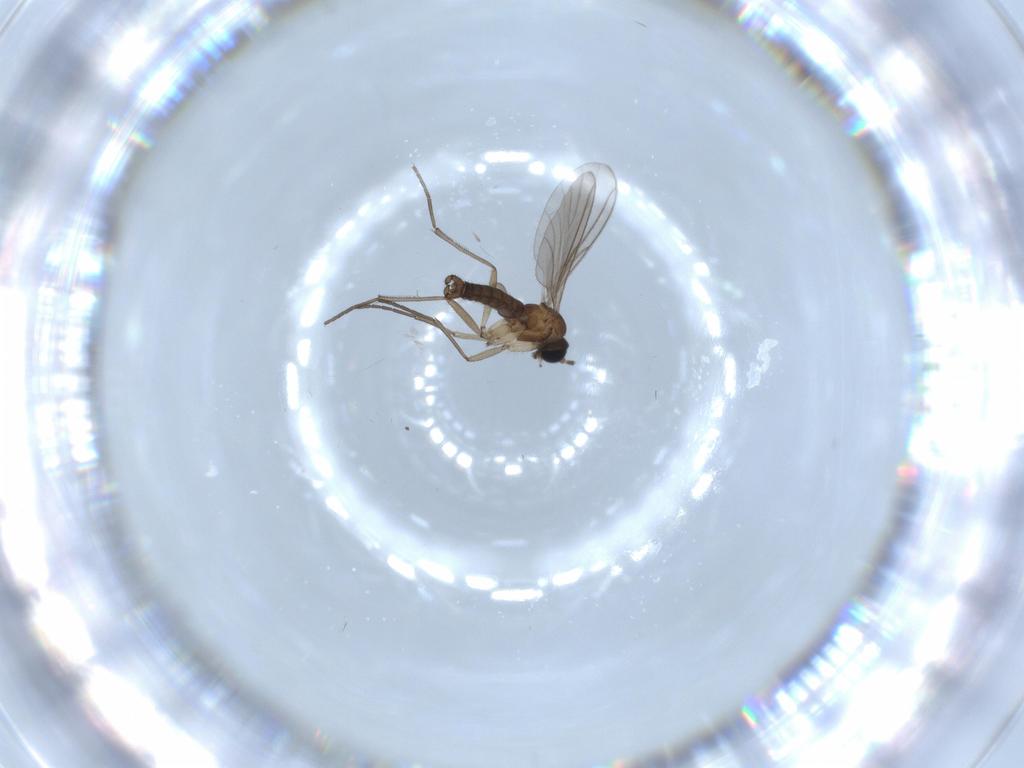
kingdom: Animalia
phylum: Arthropoda
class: Insecta
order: Diptera
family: Sciaridae
